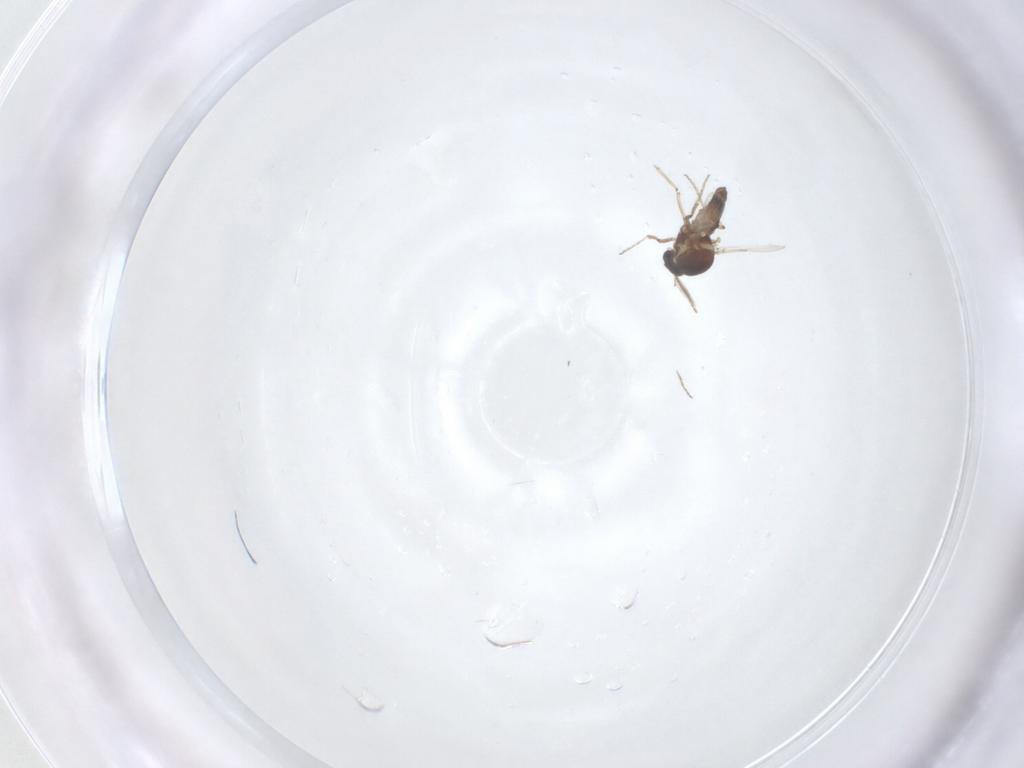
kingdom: Animalia
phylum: Arthropoda
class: Insecta
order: Diptera
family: Ceratopogonidae
